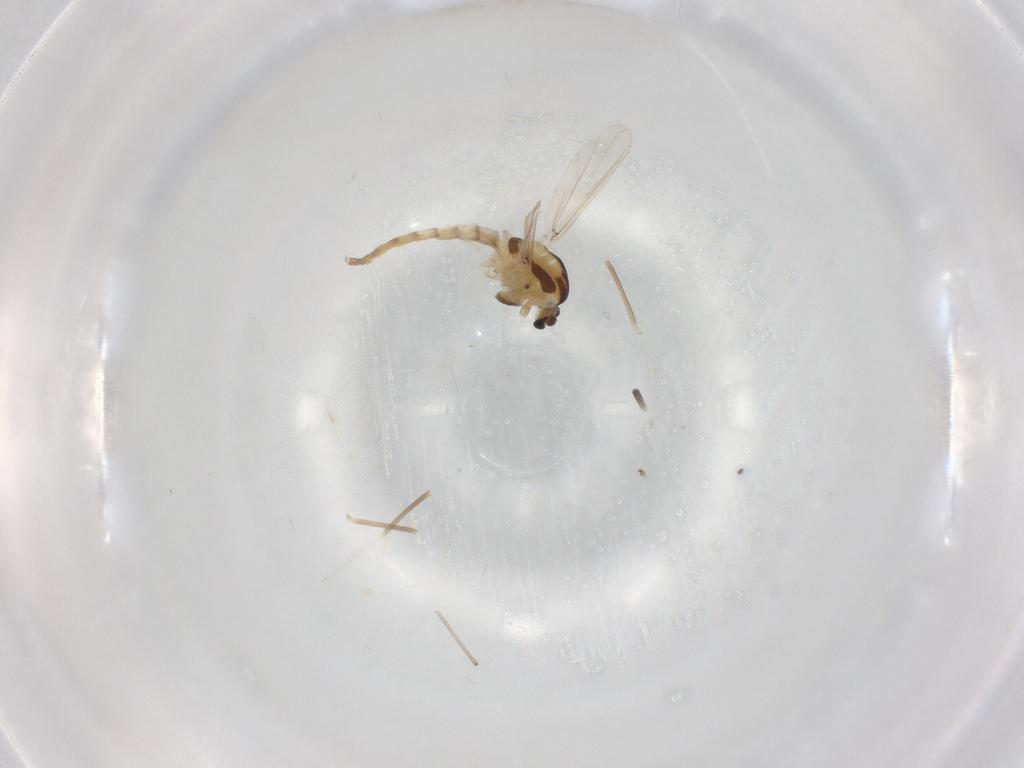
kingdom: Animalia
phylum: Arthropoda
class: Insecta
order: Diptera
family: Chironomidae
